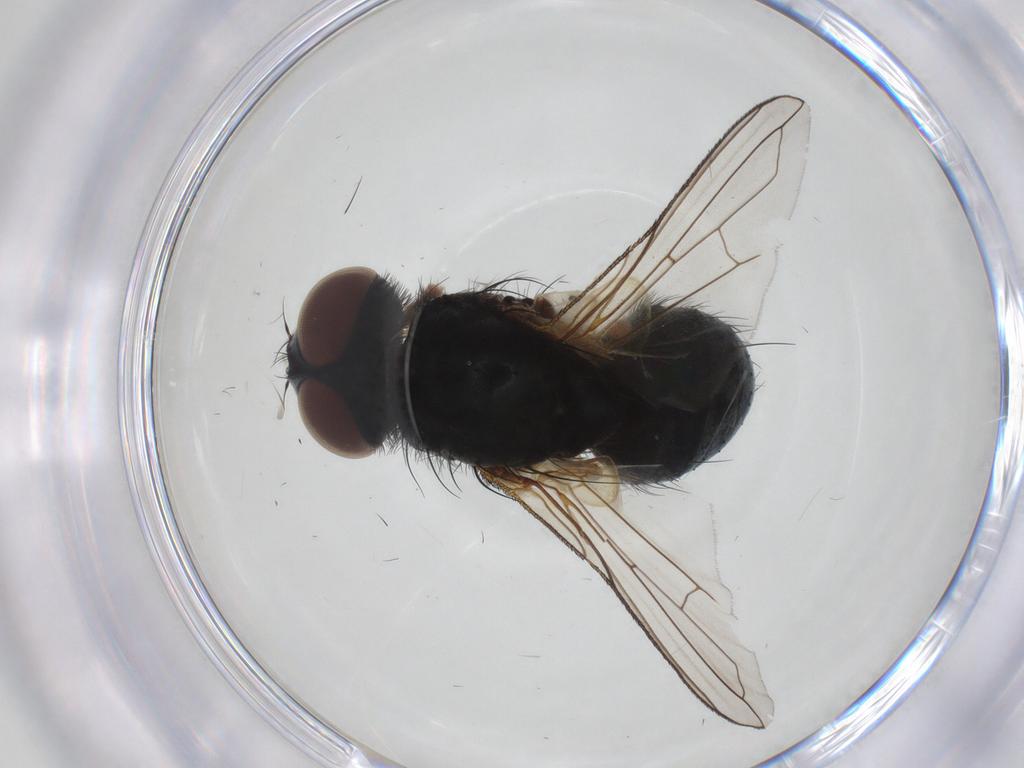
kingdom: Animalia
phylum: Arthropoda
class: Insecta
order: Diptera
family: Tachinidae
